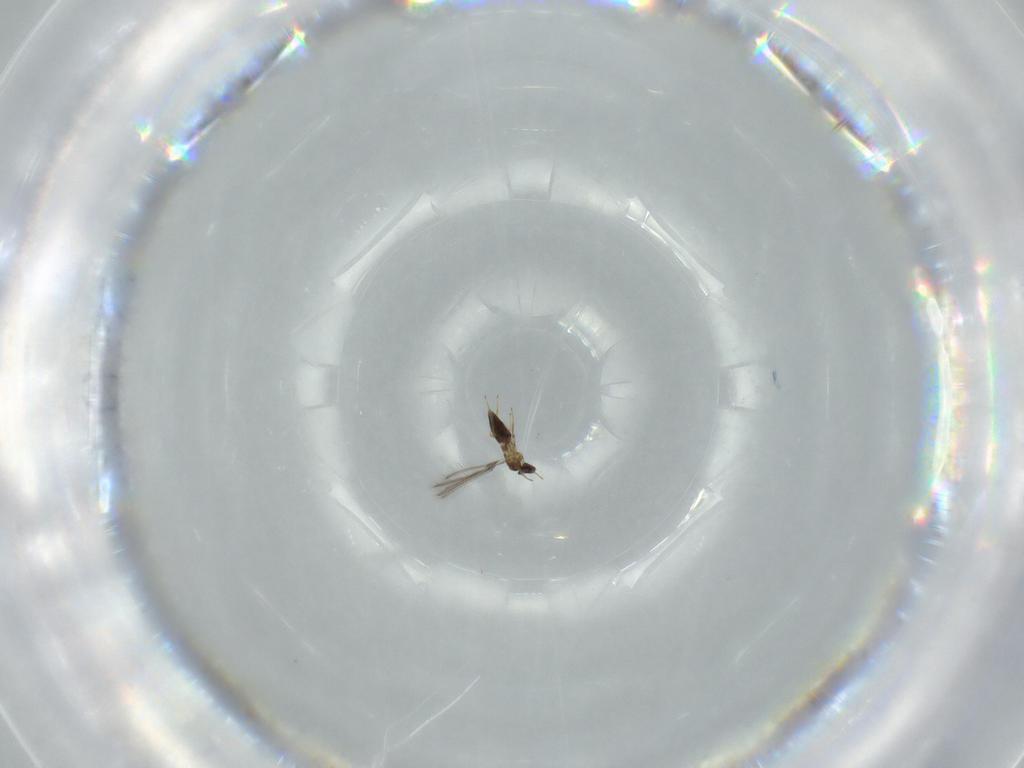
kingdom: Animalia
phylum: Arthropoda
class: Insecta
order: Hymenoptera
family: Mymaridae
